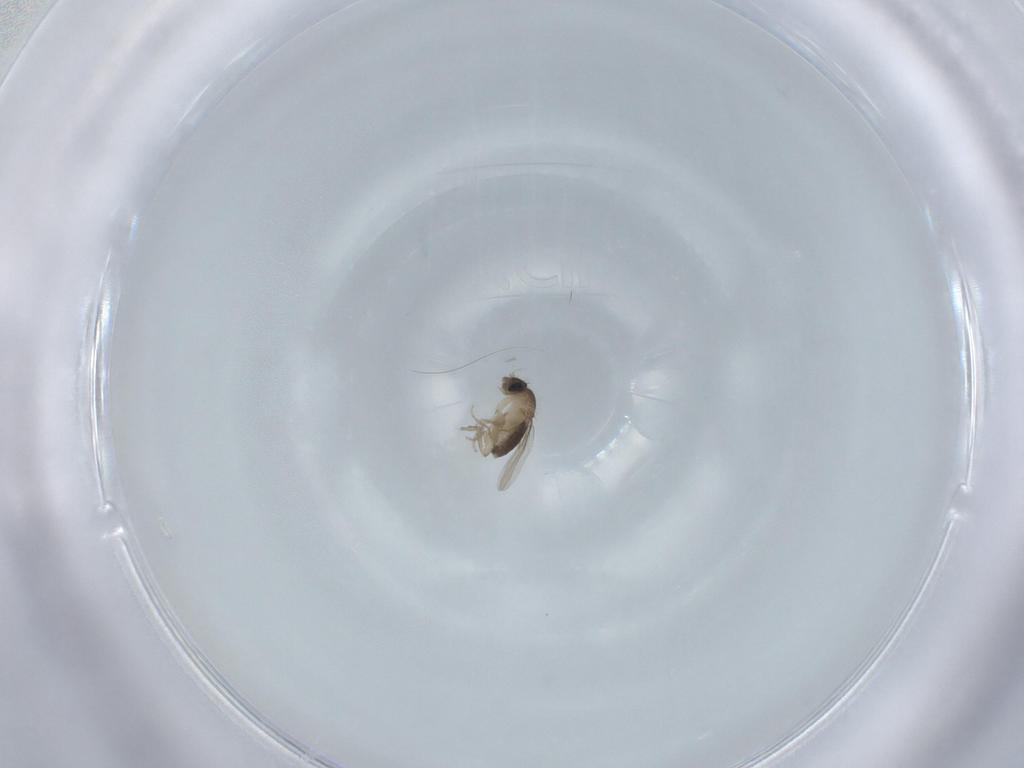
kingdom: Animalia
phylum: Arthropoda
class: Insecta
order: Diptera
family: Phoridae
